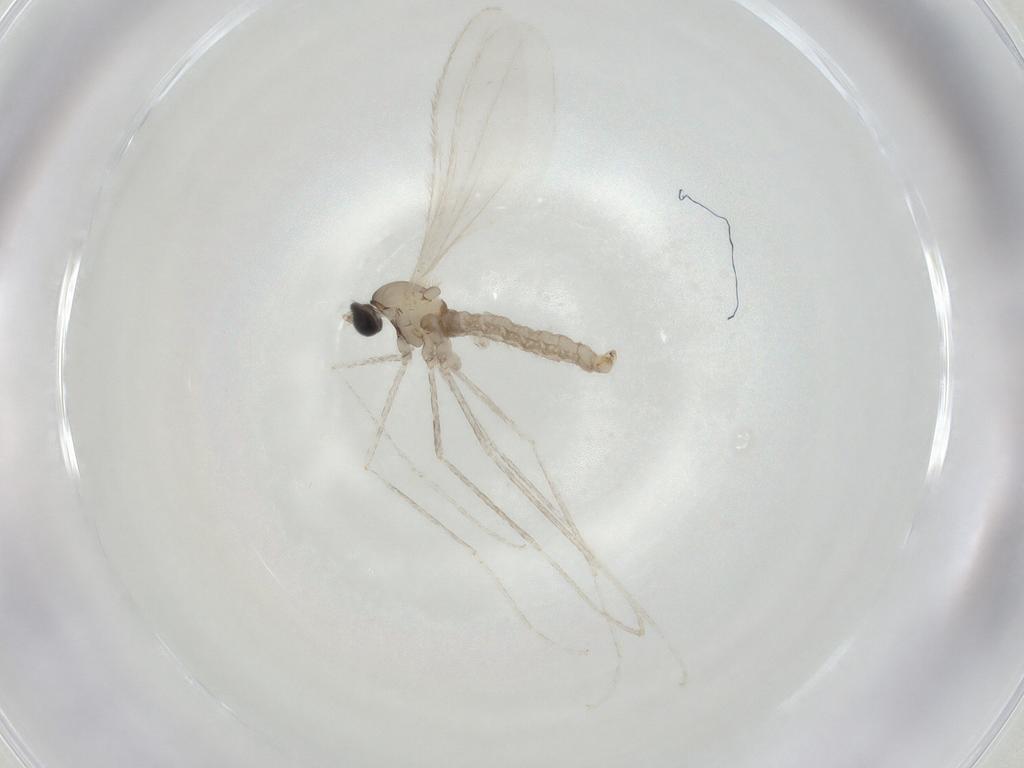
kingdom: Animalia
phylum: Arthropoda
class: Insecta
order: Diptera
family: Cecidomyiidae
